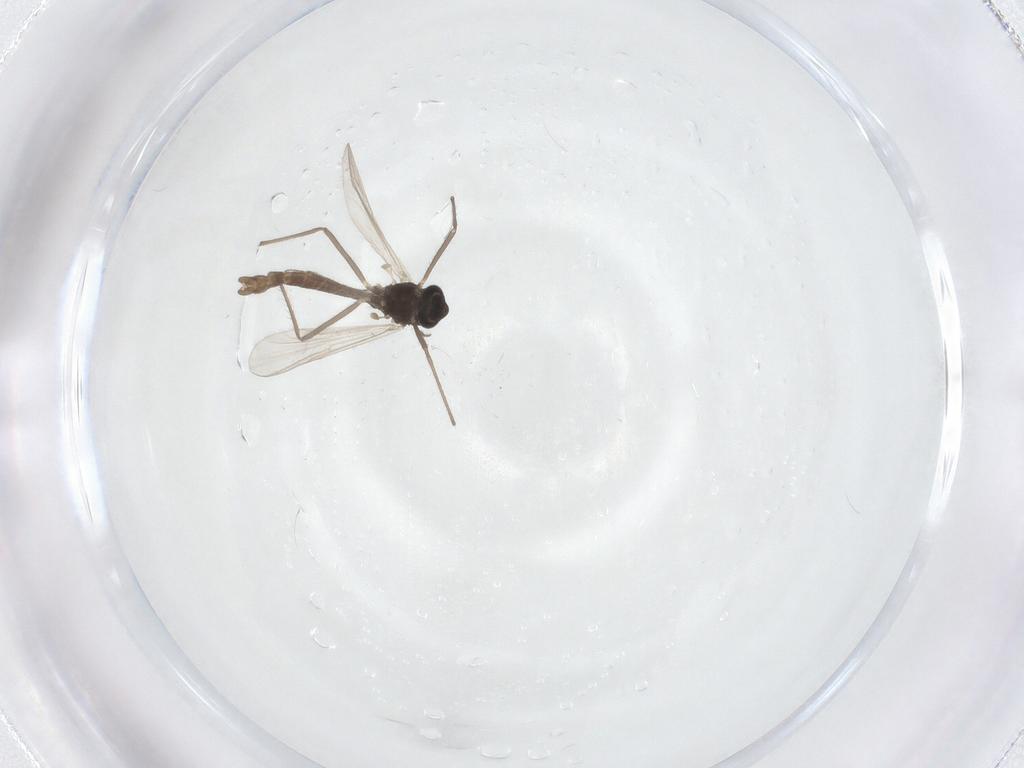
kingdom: Animalia
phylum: Arthropoda
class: Insecta
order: Diptera
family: Chironomidae
